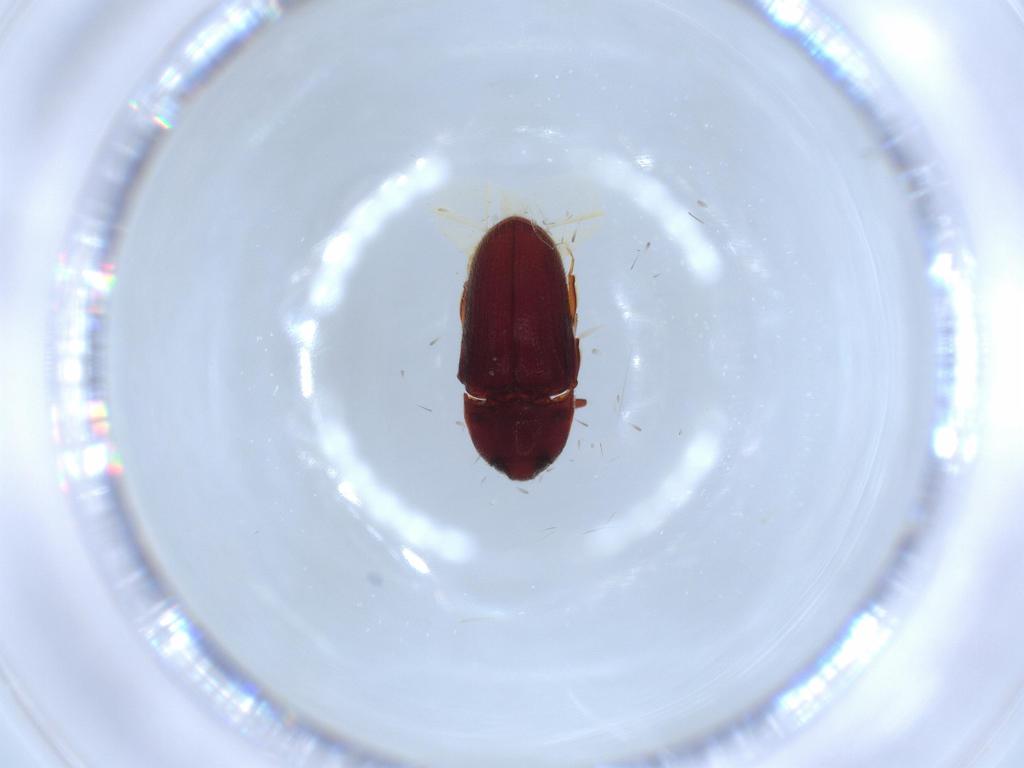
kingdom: Animalia
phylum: Arthropoda
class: Insecta
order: Coleoptera
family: Throscidae
